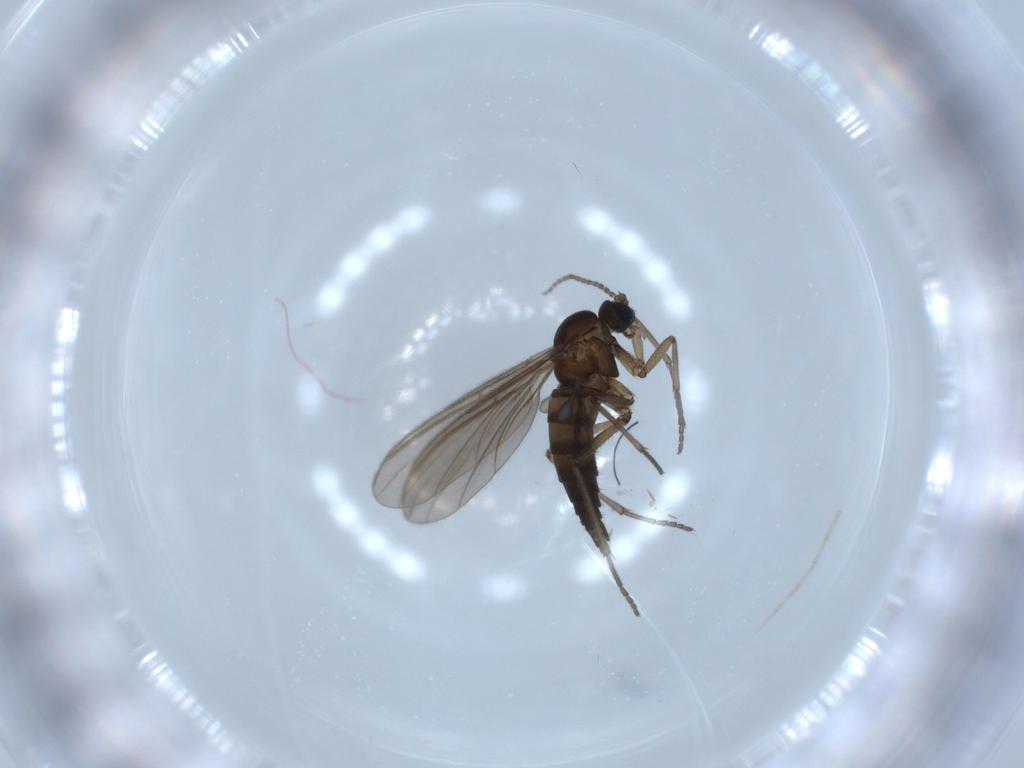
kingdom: Animalia
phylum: Arthropoda
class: Insecta
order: Diptera
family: Sciaridae
